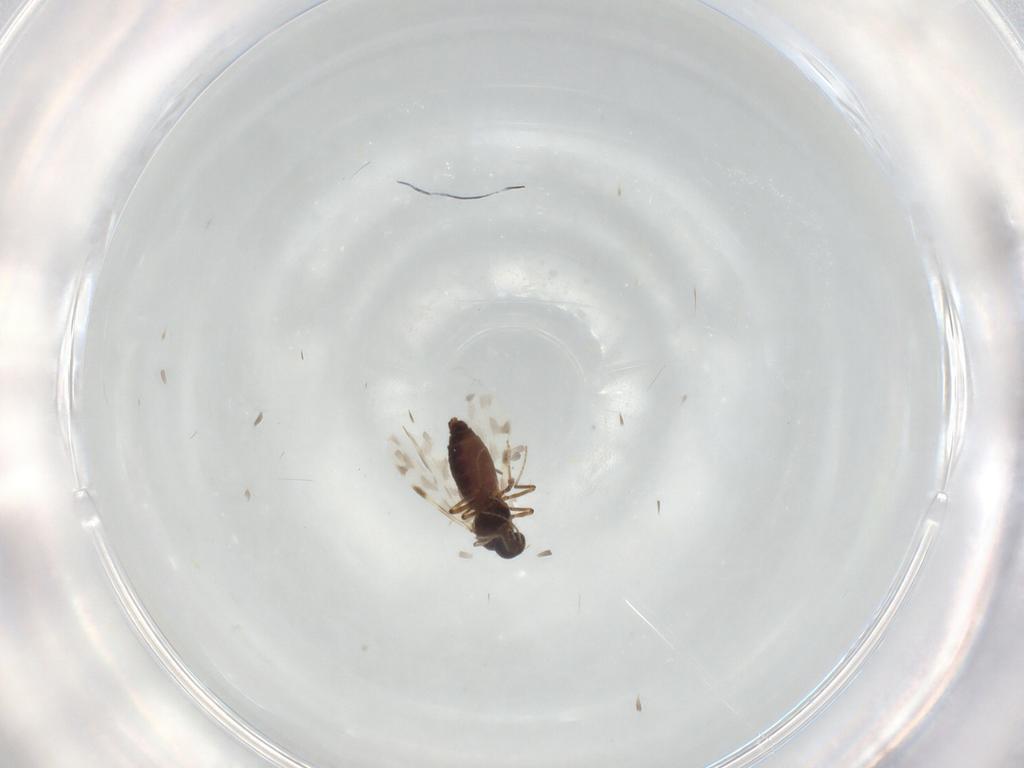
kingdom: Animalia
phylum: Arthropoda
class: Insecta
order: Diptera
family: Ceratopogonidae
